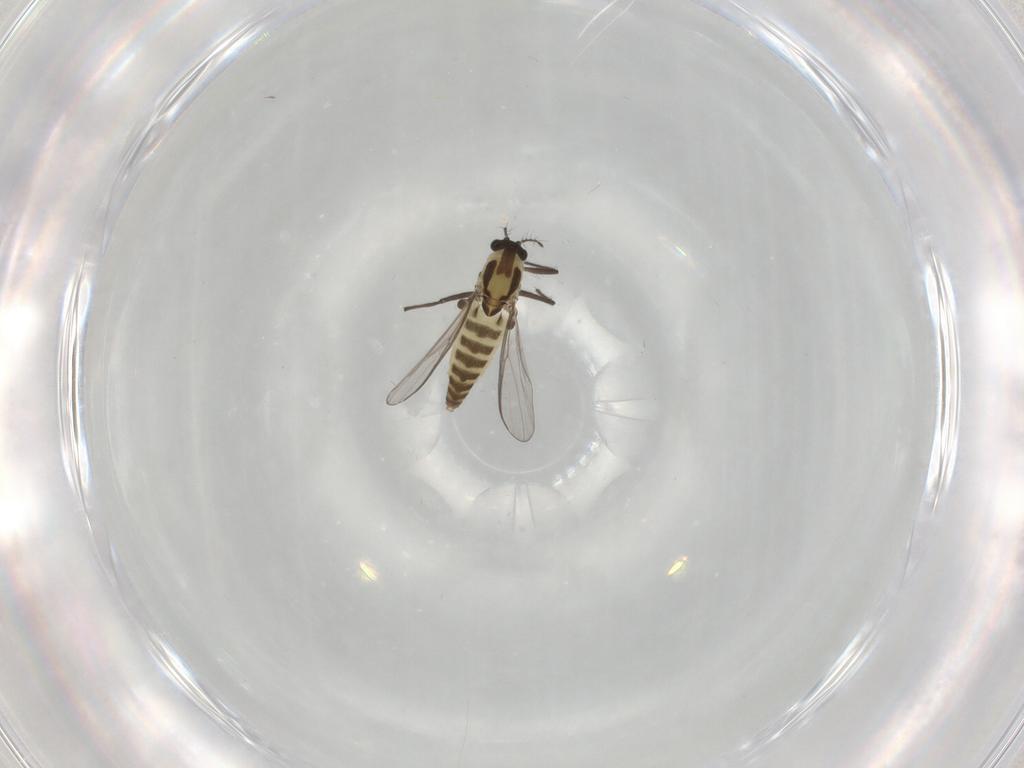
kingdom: Animalia
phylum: Arthropoda
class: Insecta
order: Diptera
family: Chironomidae
